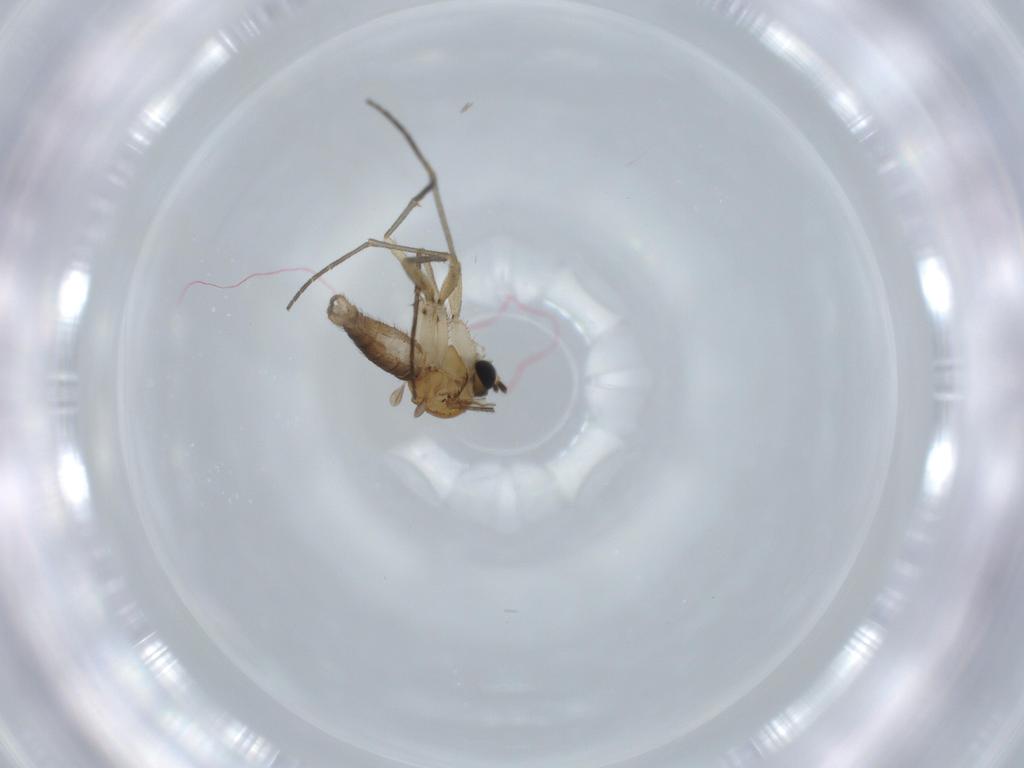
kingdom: Animalia
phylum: Arthropoda
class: Insecta
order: Diptera
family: Sciaridae
